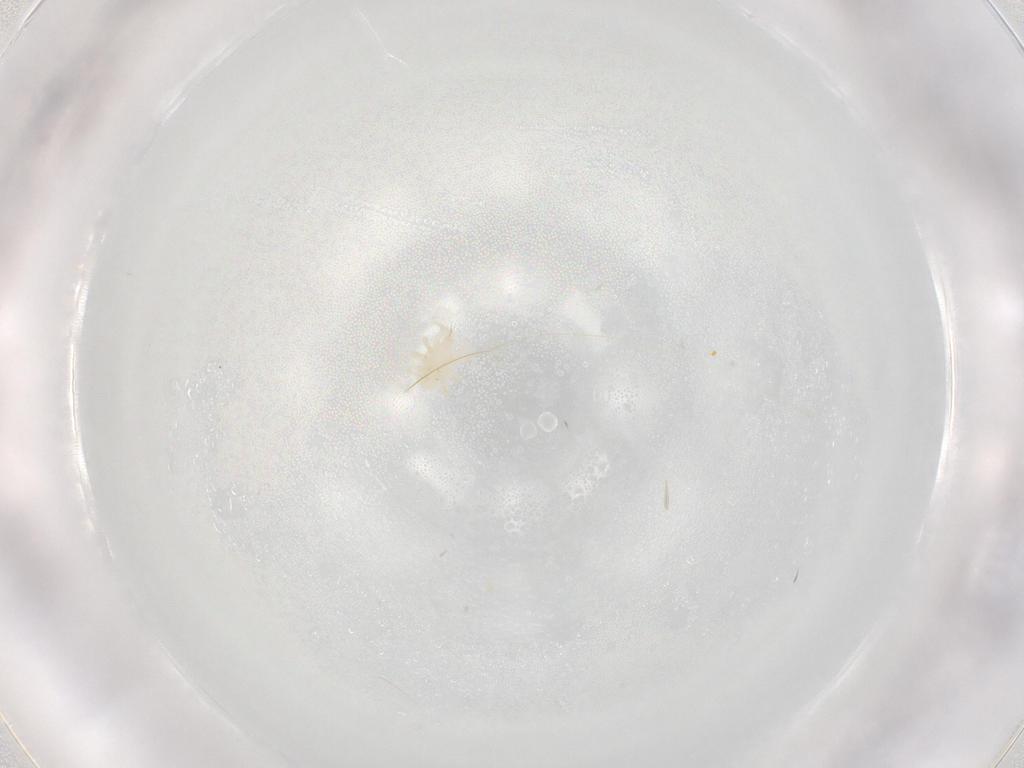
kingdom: Animalia
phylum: Arthropoda
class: Arachnida
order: Mesostigmata
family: Melicharidae
